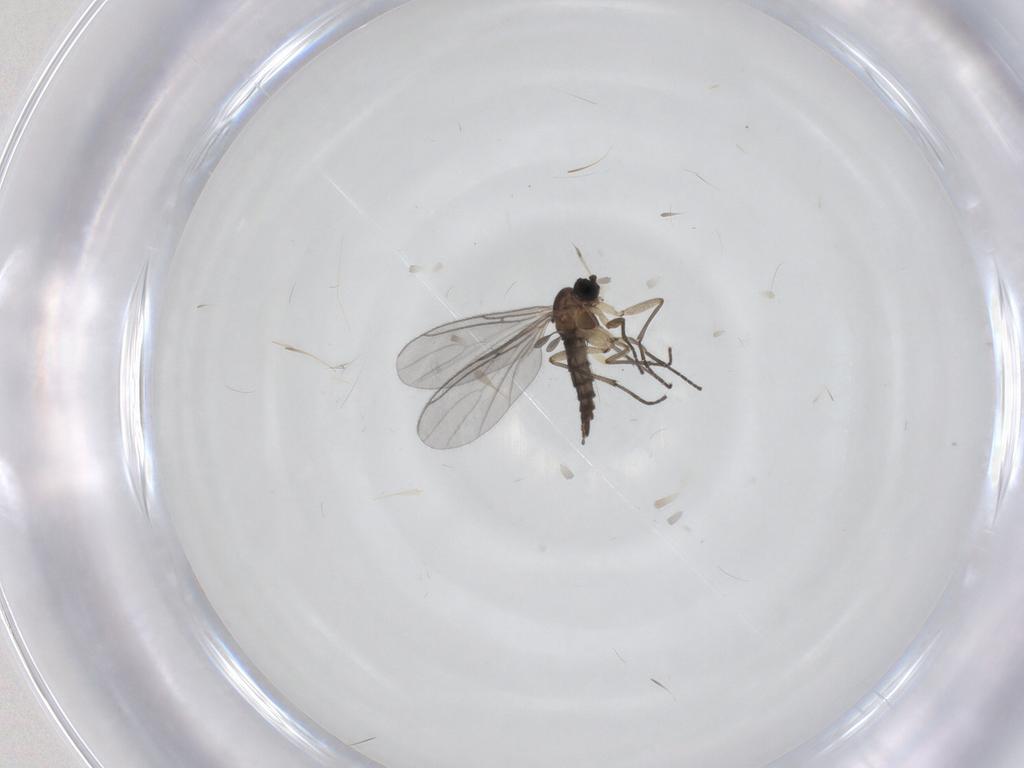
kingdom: Animalia
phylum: Arthropoda
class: Insecta
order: Diptera
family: Sciaridae
